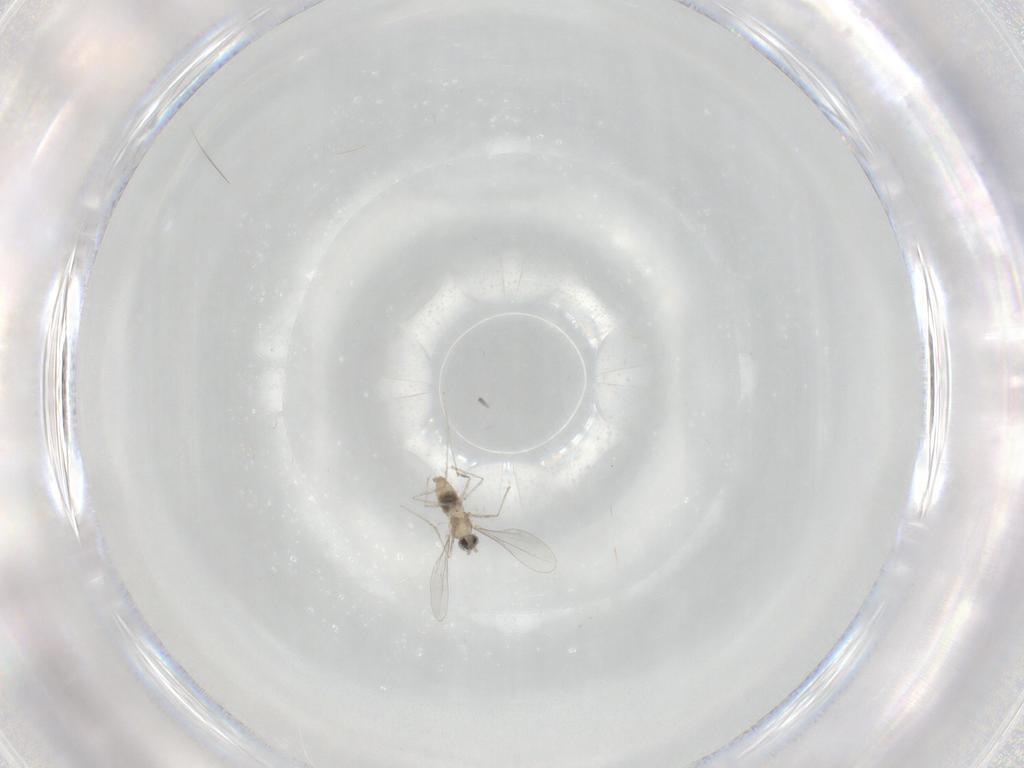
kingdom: Animalia
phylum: Arthropoda
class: Insecta
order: Diptera
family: Cecidomyiidae
